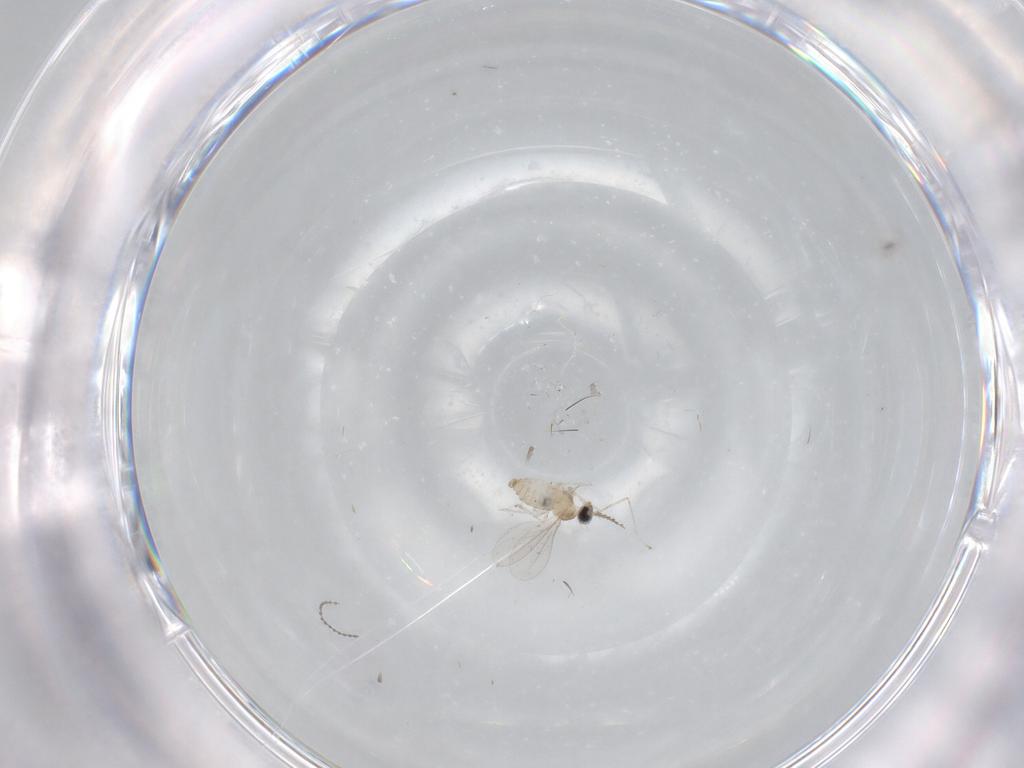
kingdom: Animalia
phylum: Arthropoda
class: Insecta
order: Diptera
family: Cecidomyiidae
